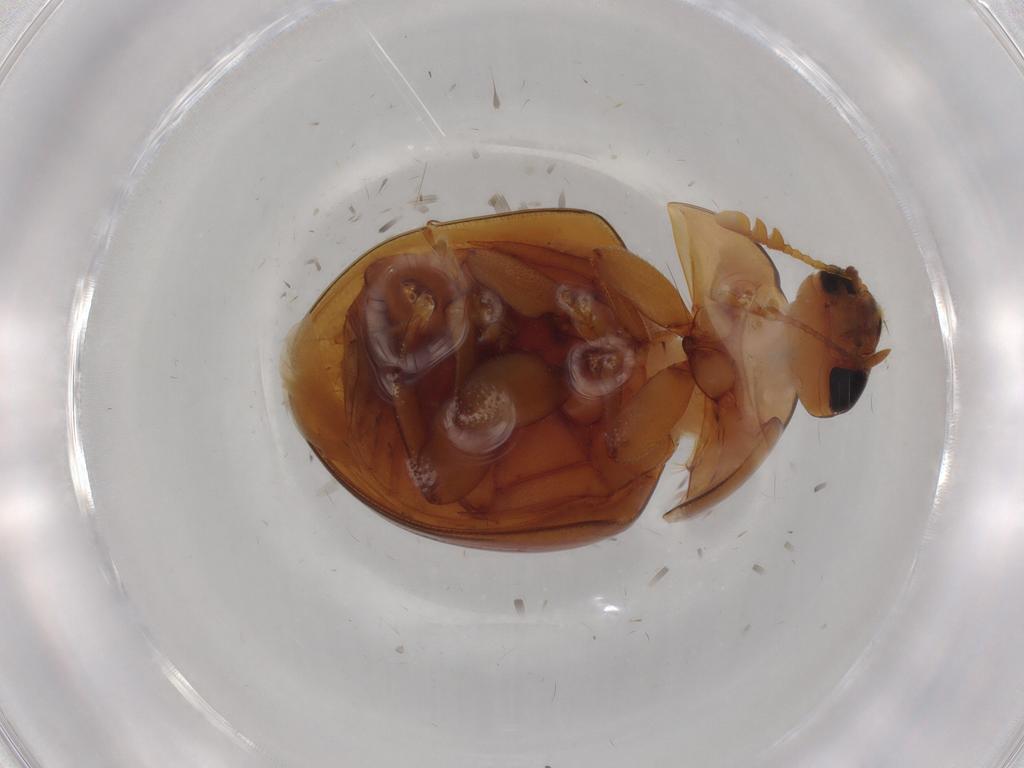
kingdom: Animalia
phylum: Arthropoda
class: Insecta
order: Coleoptera
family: Phalacridae
